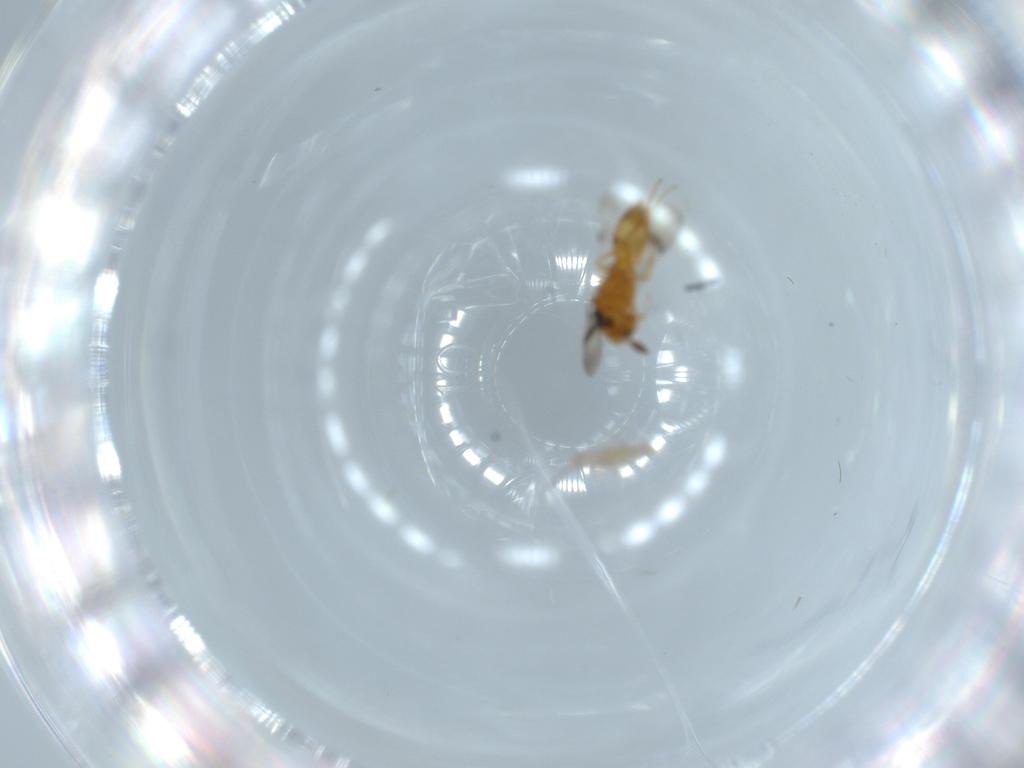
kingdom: Animalia
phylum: Arthropoda
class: Insecta
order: Hymenoptera
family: Scelionidae
